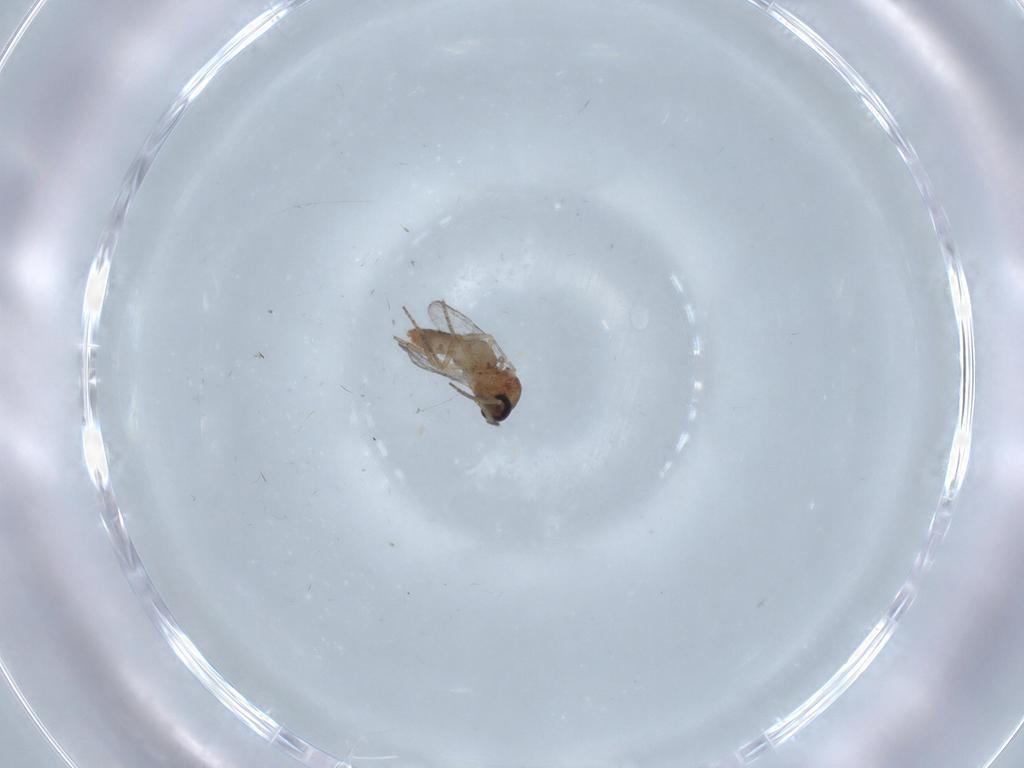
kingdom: Animalia
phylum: Arthropoda
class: Insecta
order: Diptera
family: Ceratopogonidae
